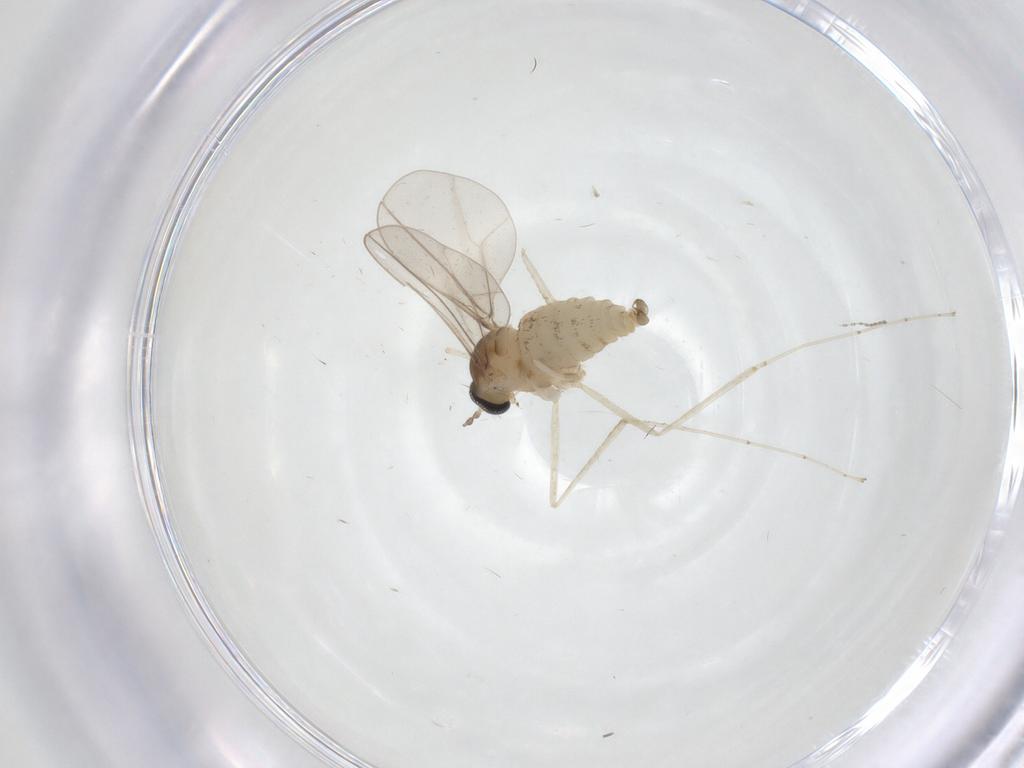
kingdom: Animalia
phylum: Arthropoda
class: Insecta
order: Diptera
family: Cecidomyiidae
